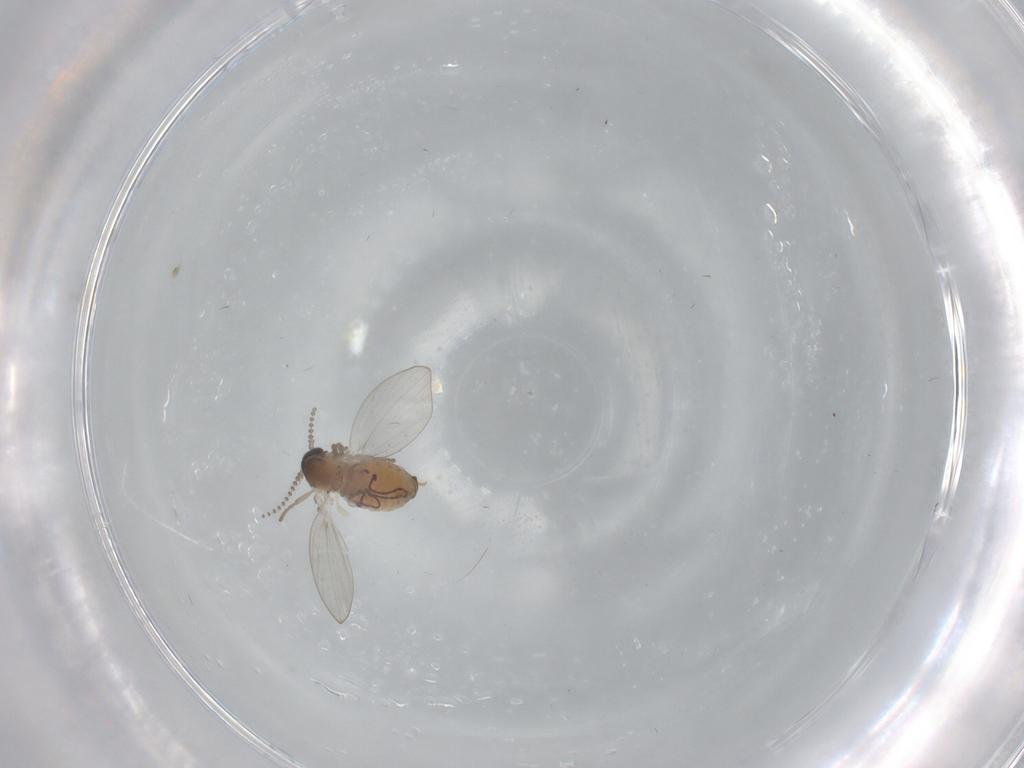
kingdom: Animalia
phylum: Arthropoda
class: Insecta
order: Diptera
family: Psychodidae
